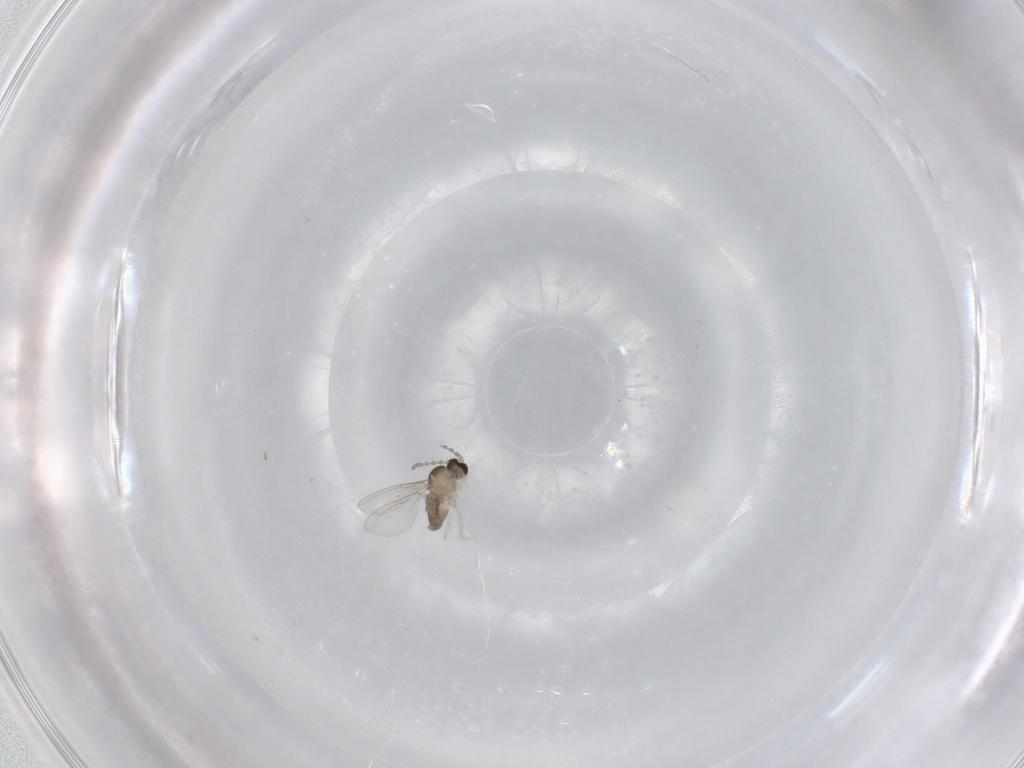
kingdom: Animalia
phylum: Arthropoda
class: Insecta
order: Diptera
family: Cecidomyiidae
